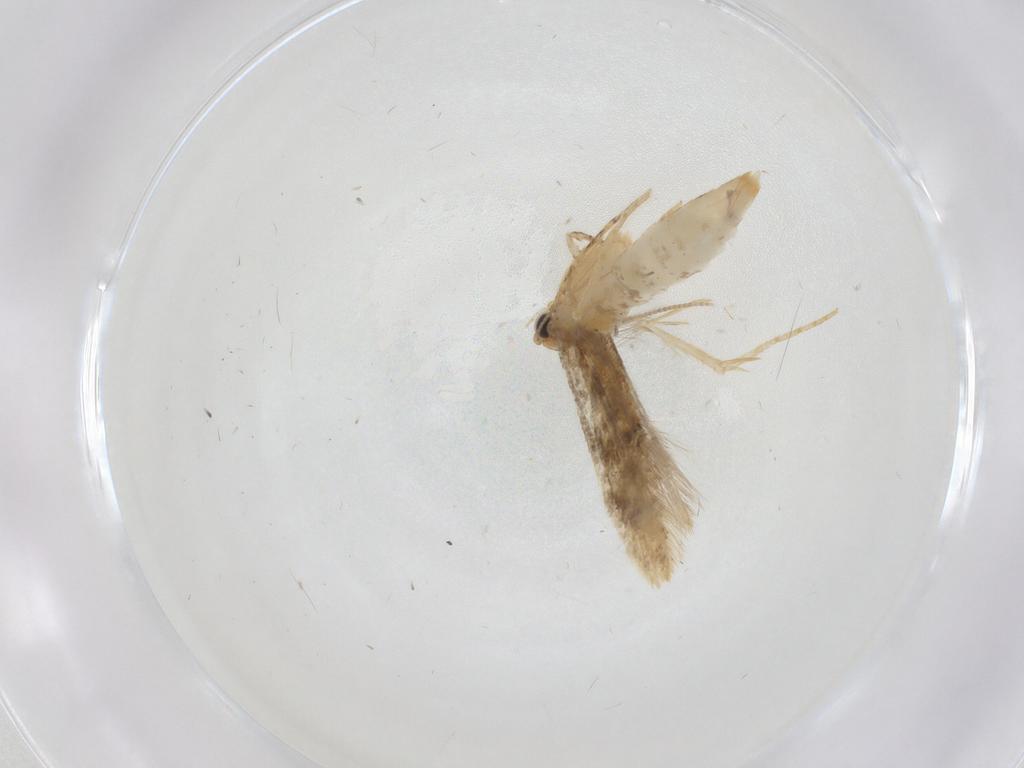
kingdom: Animalia
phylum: Arthropoda
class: Insecta
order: Lepidoptera
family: Tineidae
